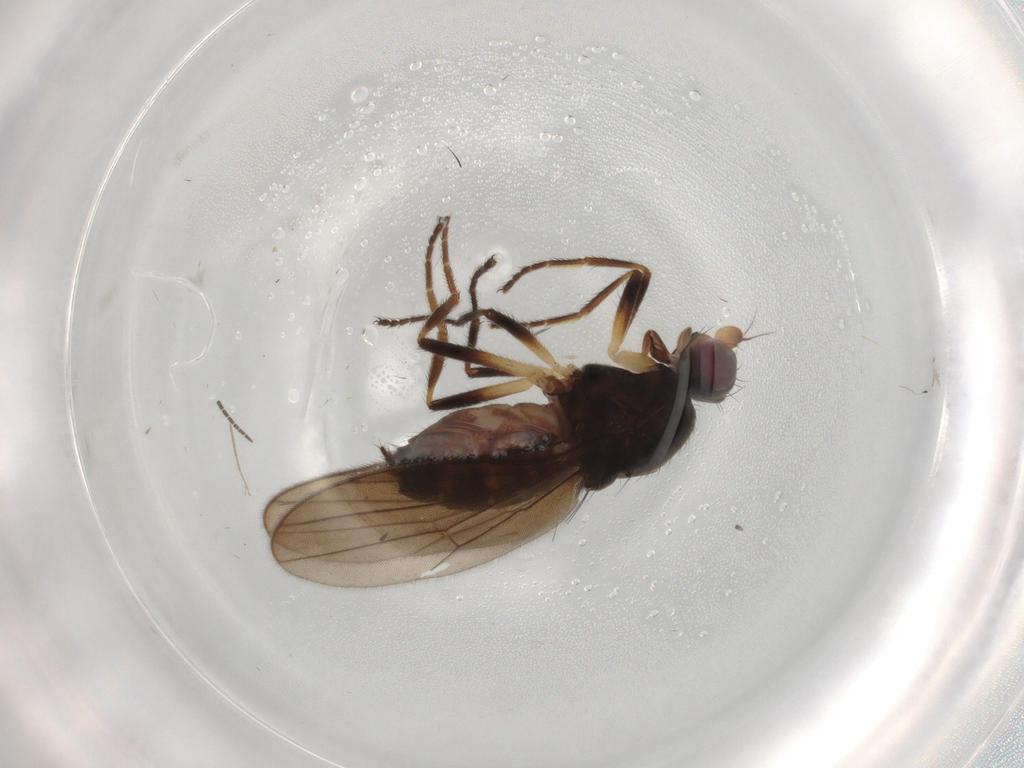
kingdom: Animalia
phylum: Arthropoda
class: Insecta
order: Diptera
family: Chloropidae
